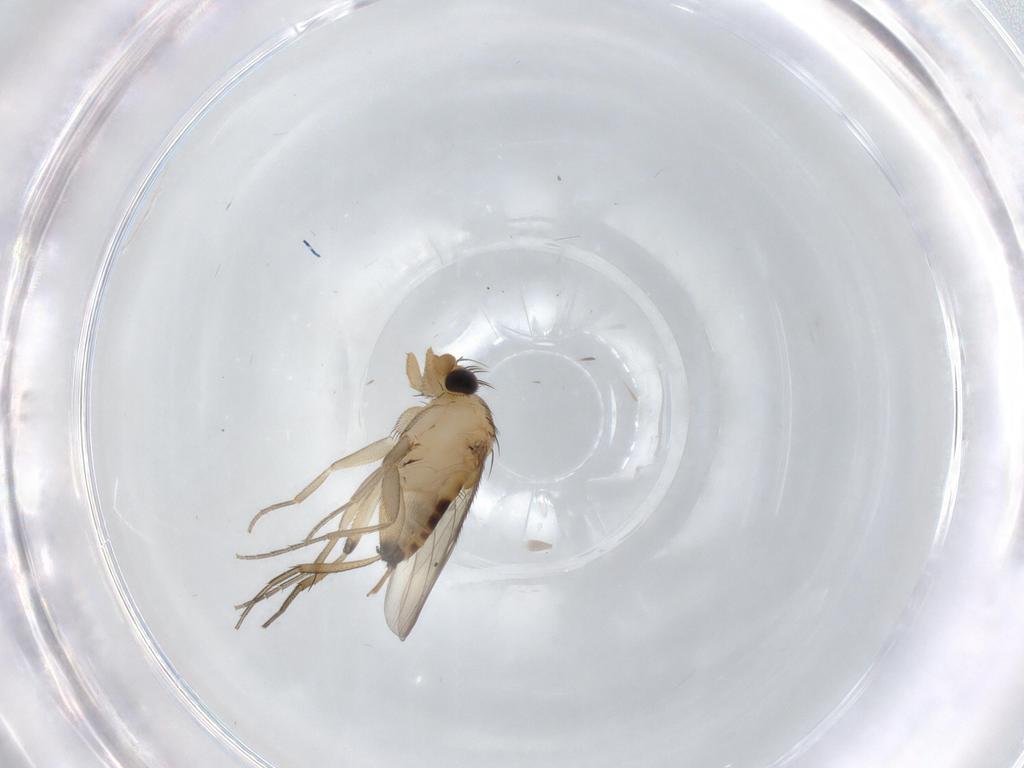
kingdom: Animalia
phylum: Arthropoda
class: Insecta
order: Diptera
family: Phoridae
